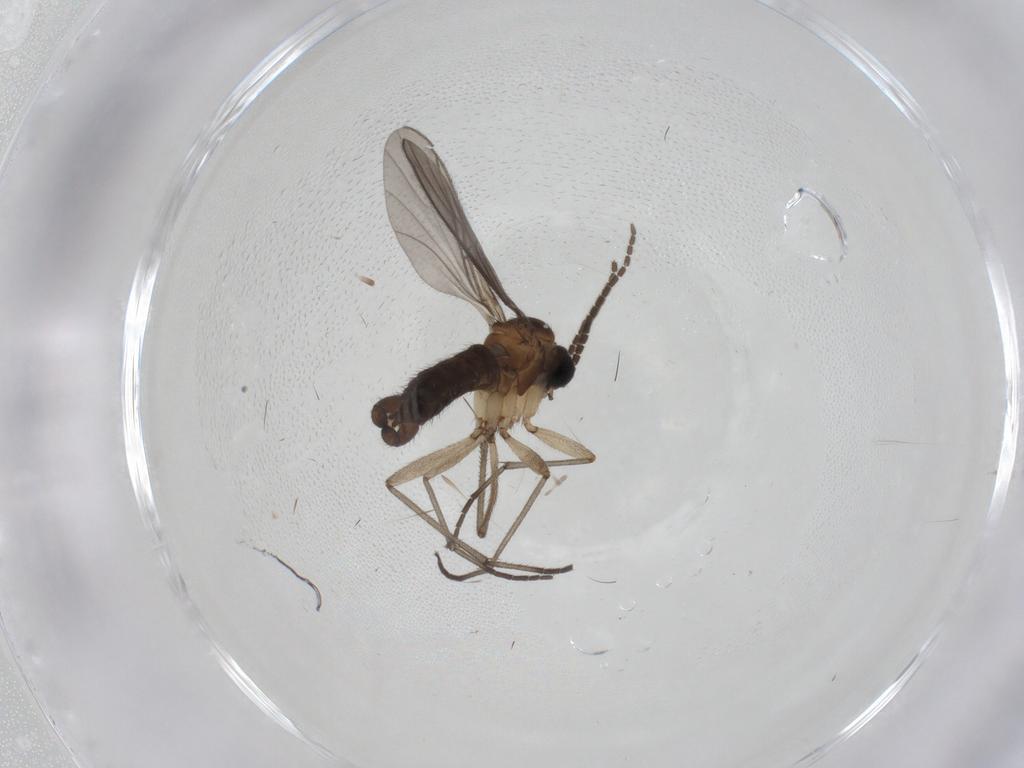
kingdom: Animalia
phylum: Arthropoda
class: Insecta
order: Diptera
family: Sciaridae
